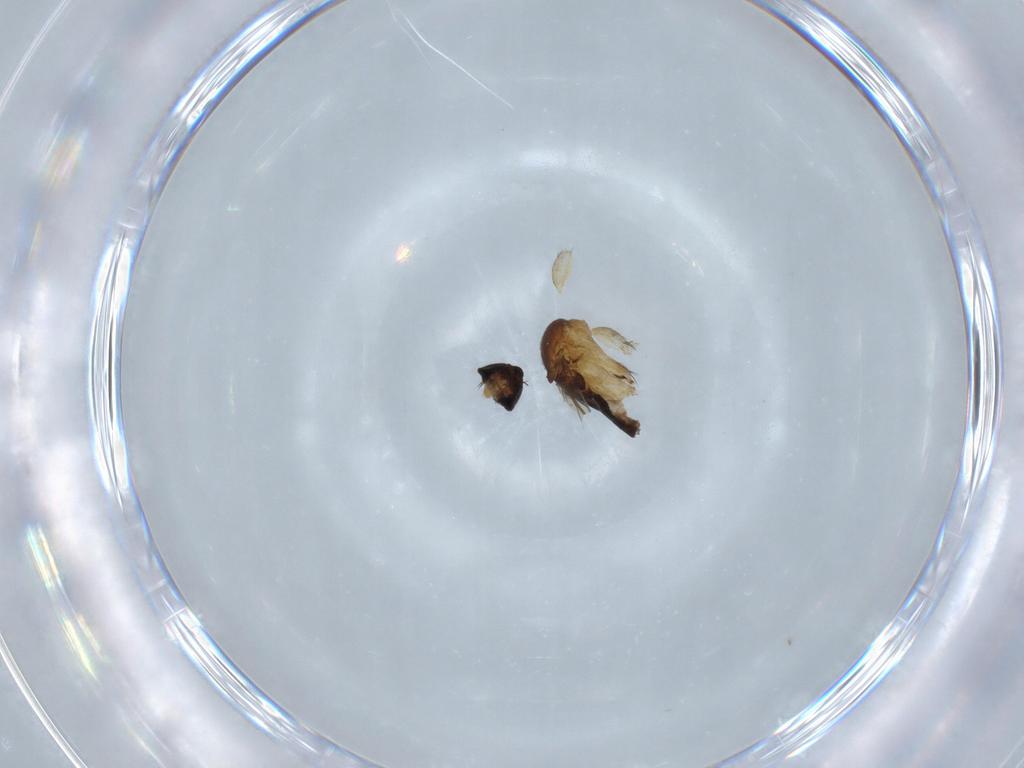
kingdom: Animalia
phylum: Arthropoda
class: Insecta
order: Diptera
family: Phoridae
